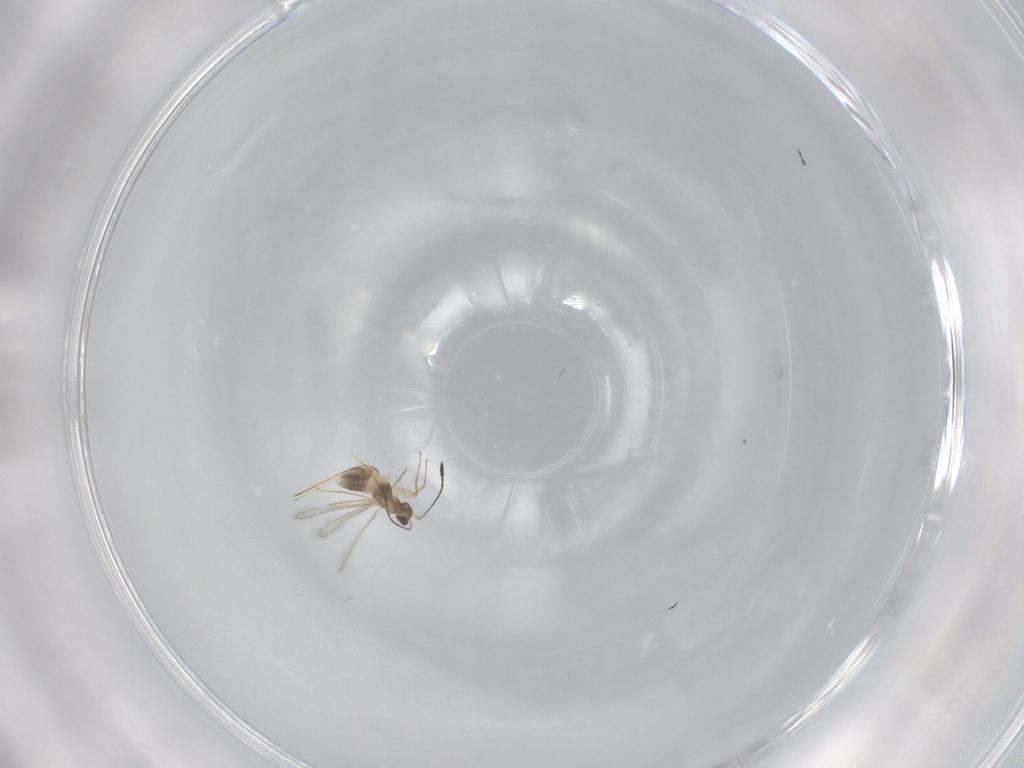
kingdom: Animalia
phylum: Arthropoda
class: Insecta
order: Hymenoptera
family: Mymaridae
